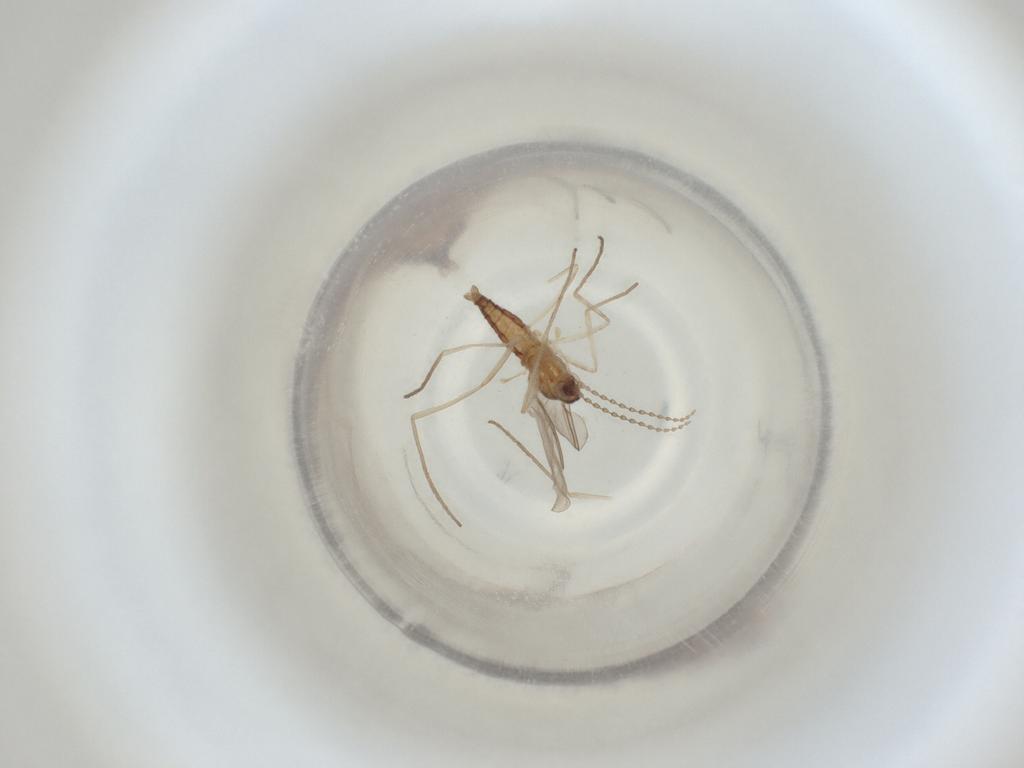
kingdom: Animalia
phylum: Arthropoda
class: Insecta
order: Diptera
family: Cecidomyiidae
